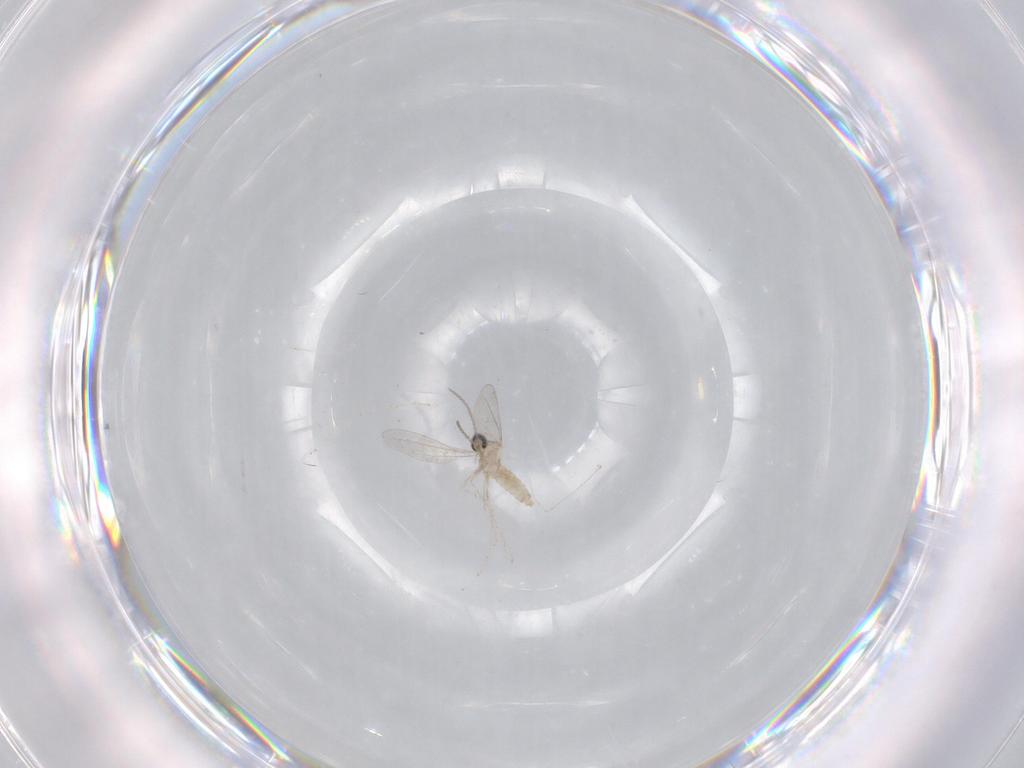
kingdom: Animalia
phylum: Arthropoda
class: Insecta
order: Diptera
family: Cecidomyiidae
